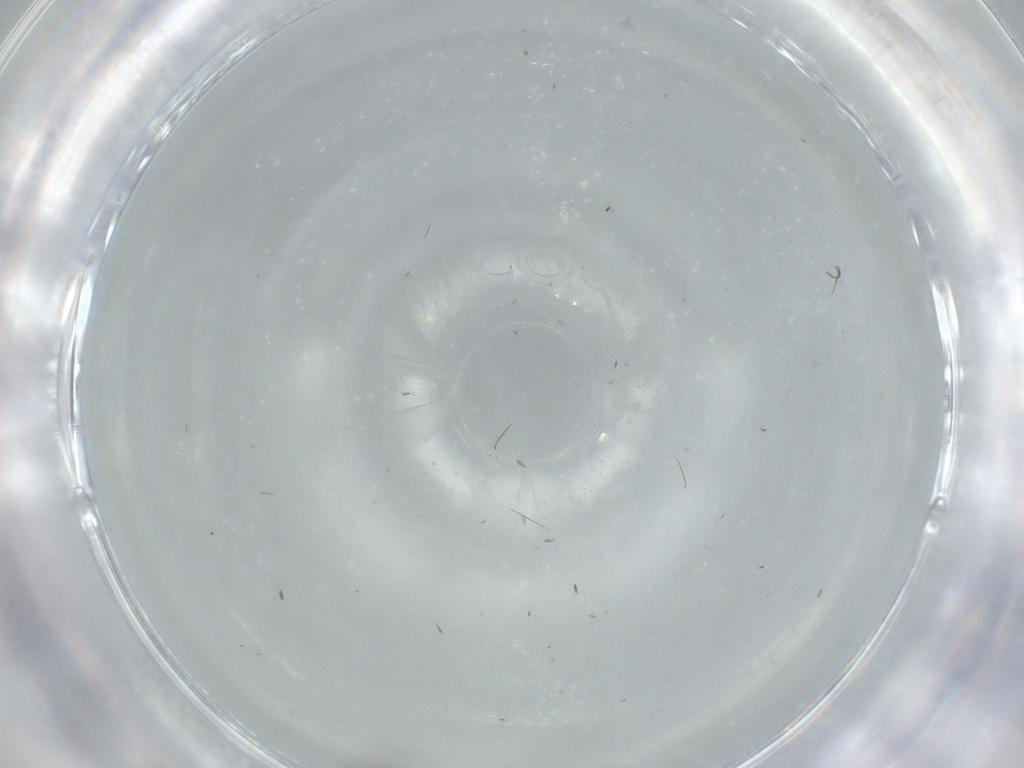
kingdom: Animalia
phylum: Arthropoda
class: Insecta
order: Diptera
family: Sciaridae
